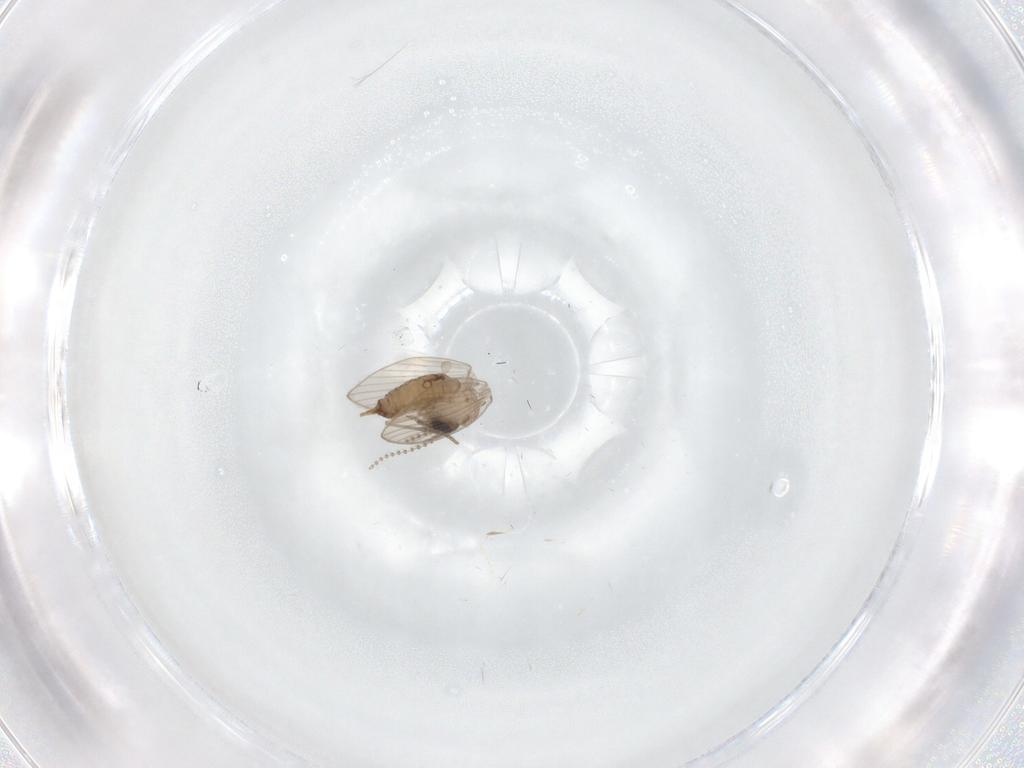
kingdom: Animalia
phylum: Arthropoda
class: Insecta
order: Diptera
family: Psychodidae
